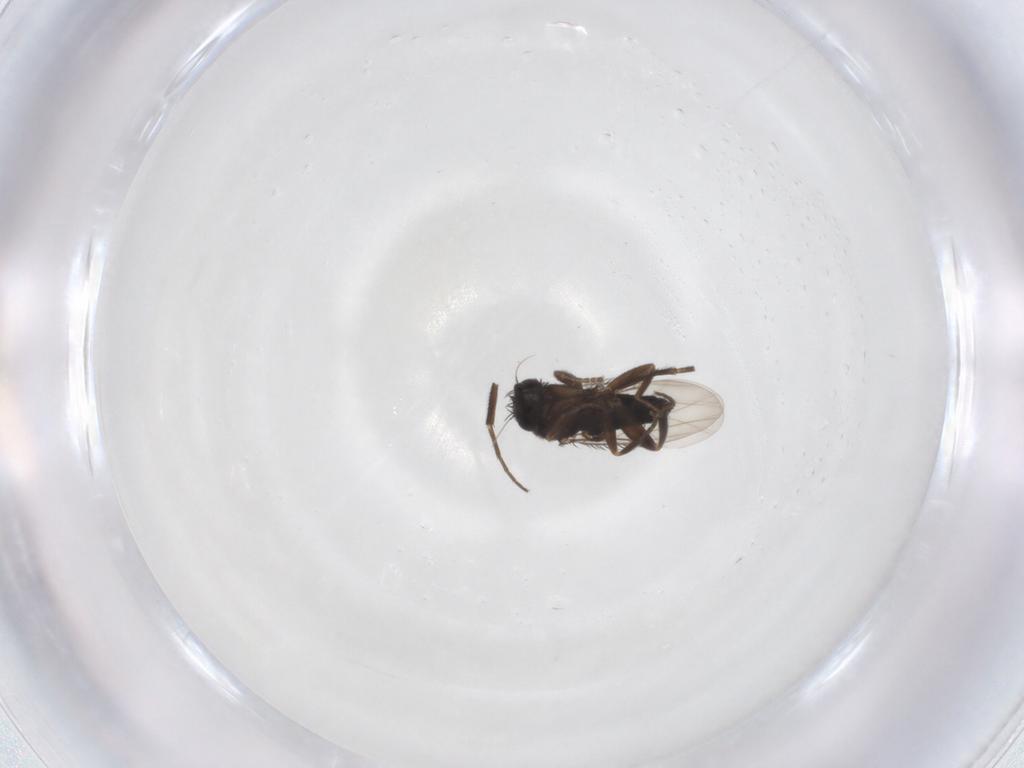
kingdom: Animalia
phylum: Arthropoda
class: Insecta
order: Diptera
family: Phoridae
